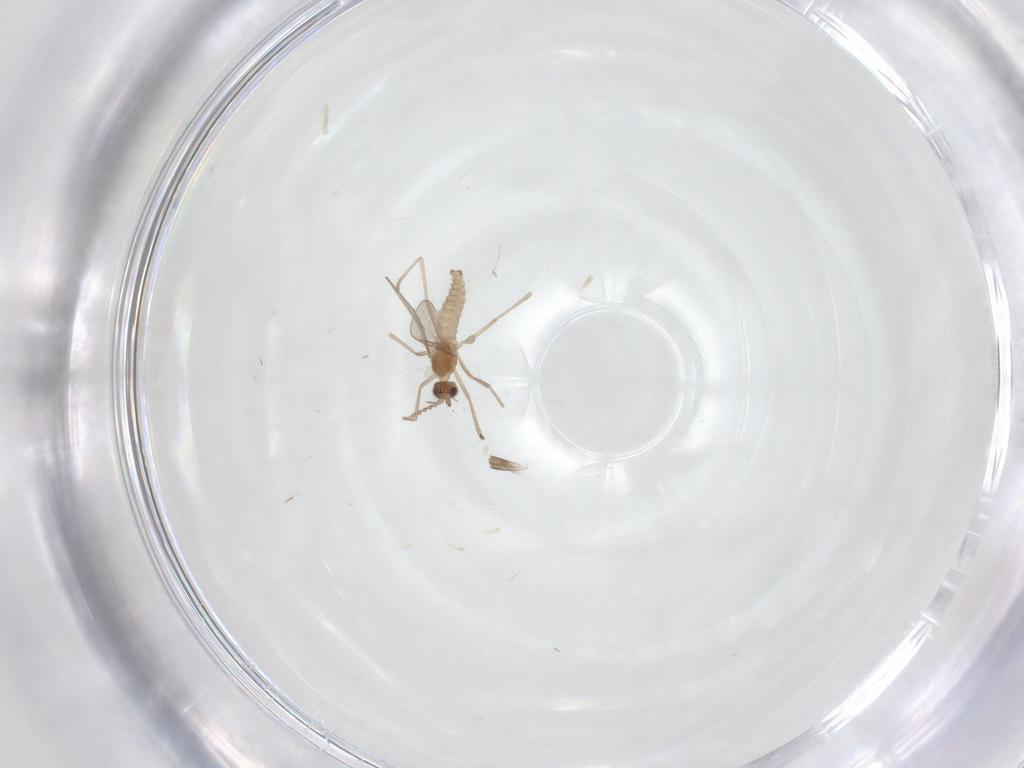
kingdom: Animalia
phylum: Arthropoda
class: Insecta
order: Diptera
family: Cecidomyiidae
